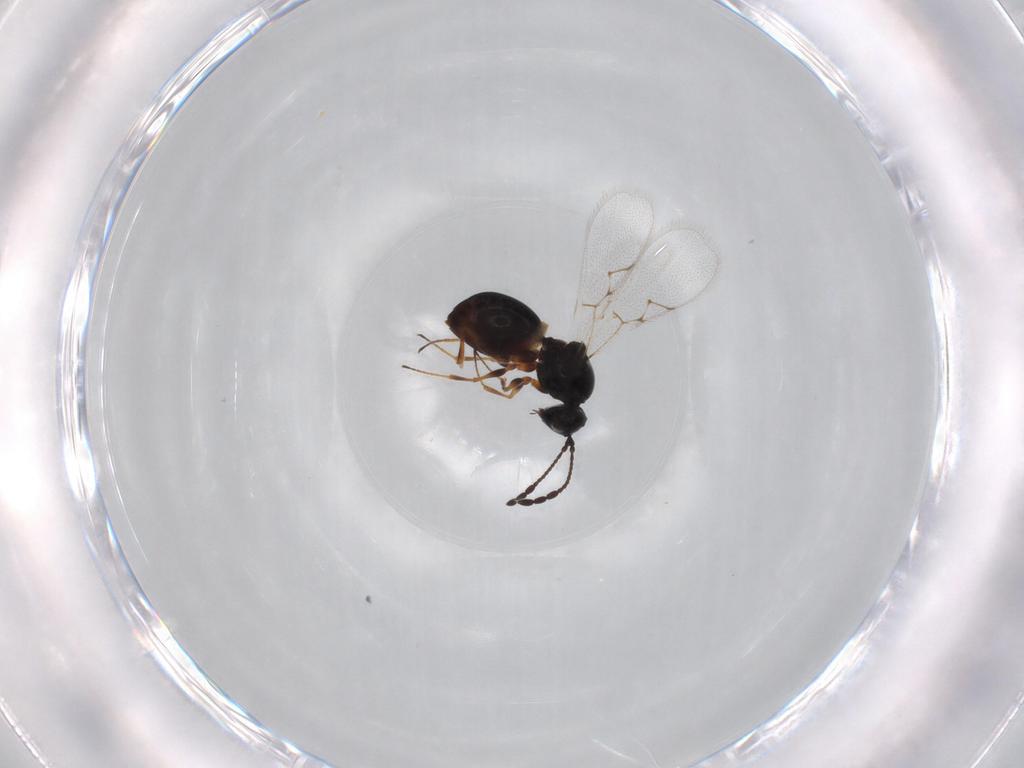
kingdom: Animalia
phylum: Arthropoda
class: Insecta
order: Hymenoptera
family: Figitidae
